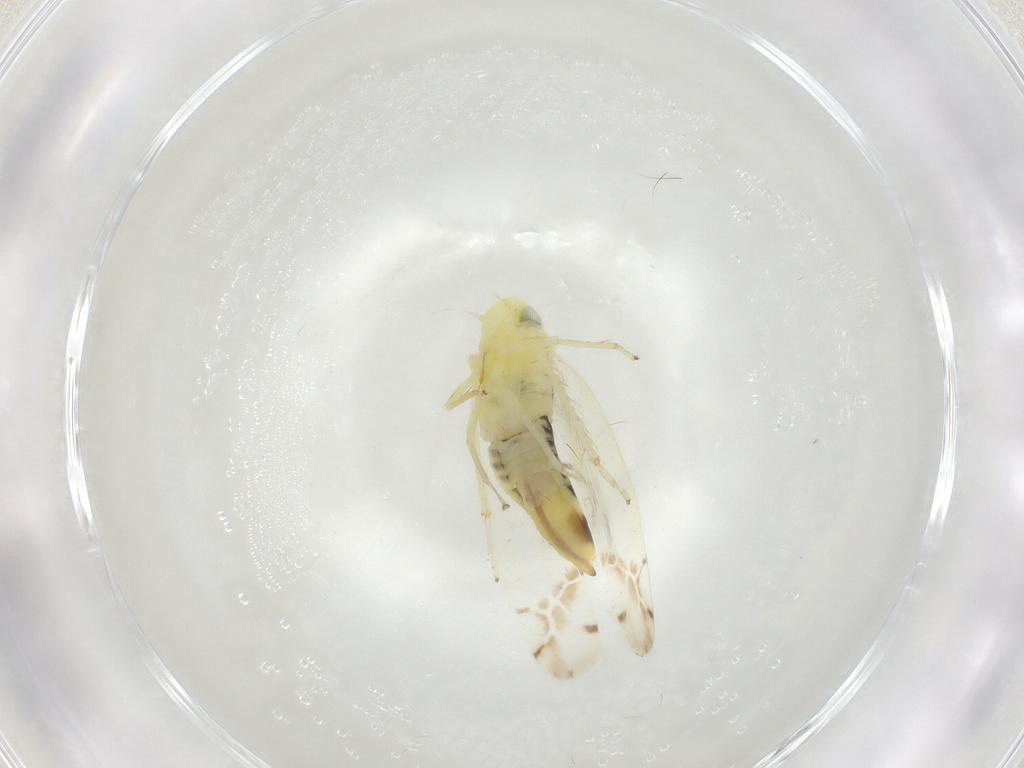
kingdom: Animalia
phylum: Arthropoda
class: Insecta
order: Hemiptera
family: Cicadellidae
